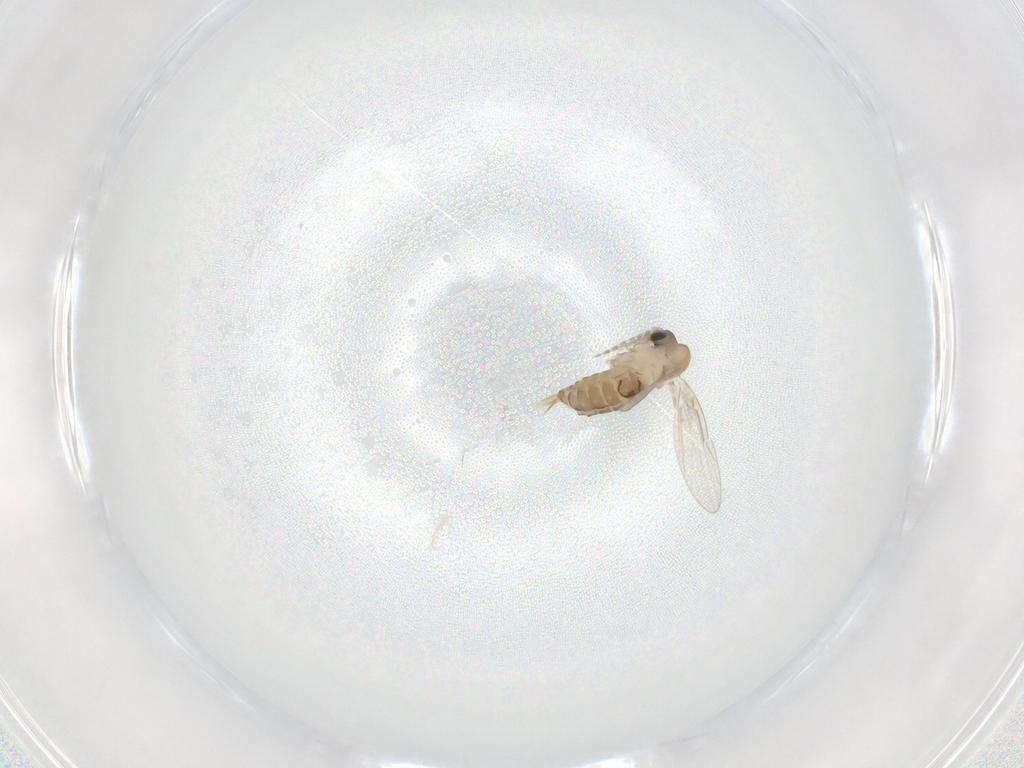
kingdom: Animalia
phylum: Arthropoda
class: Insecta
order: Diptera
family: Psychodidae
